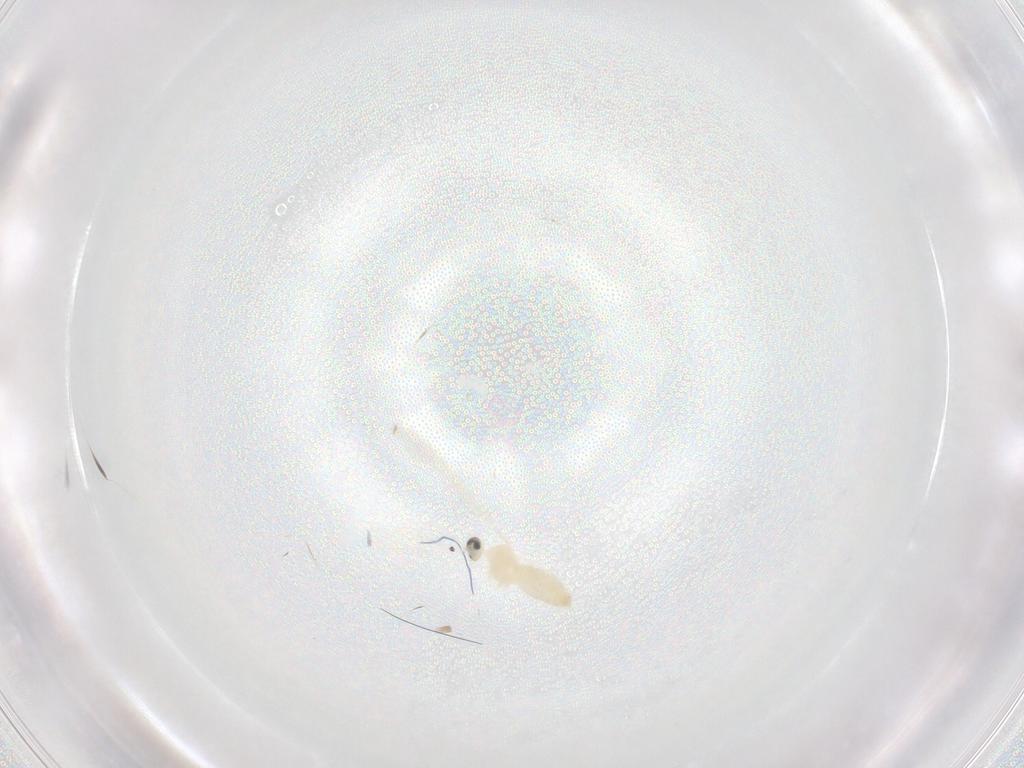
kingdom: Animalia
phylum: Arthropoda
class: Insecta
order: Diptera
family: Cecidomyiidae
